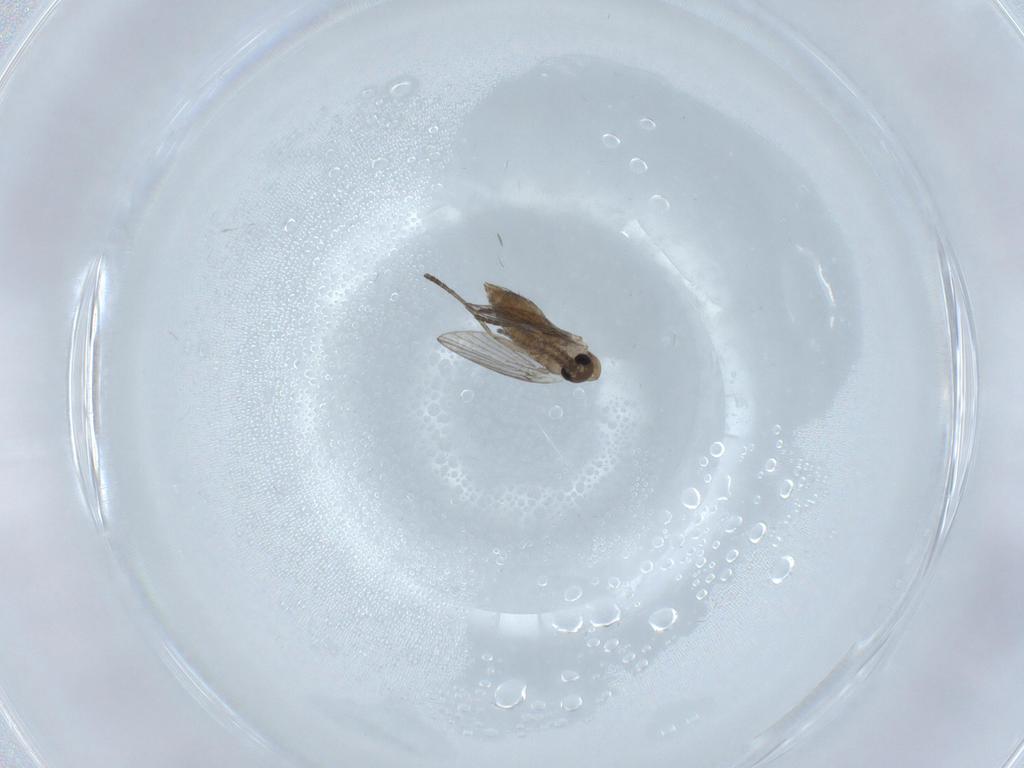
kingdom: Animalia
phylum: Arthropoda
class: Insecta
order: Diptera
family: Psychodidae
